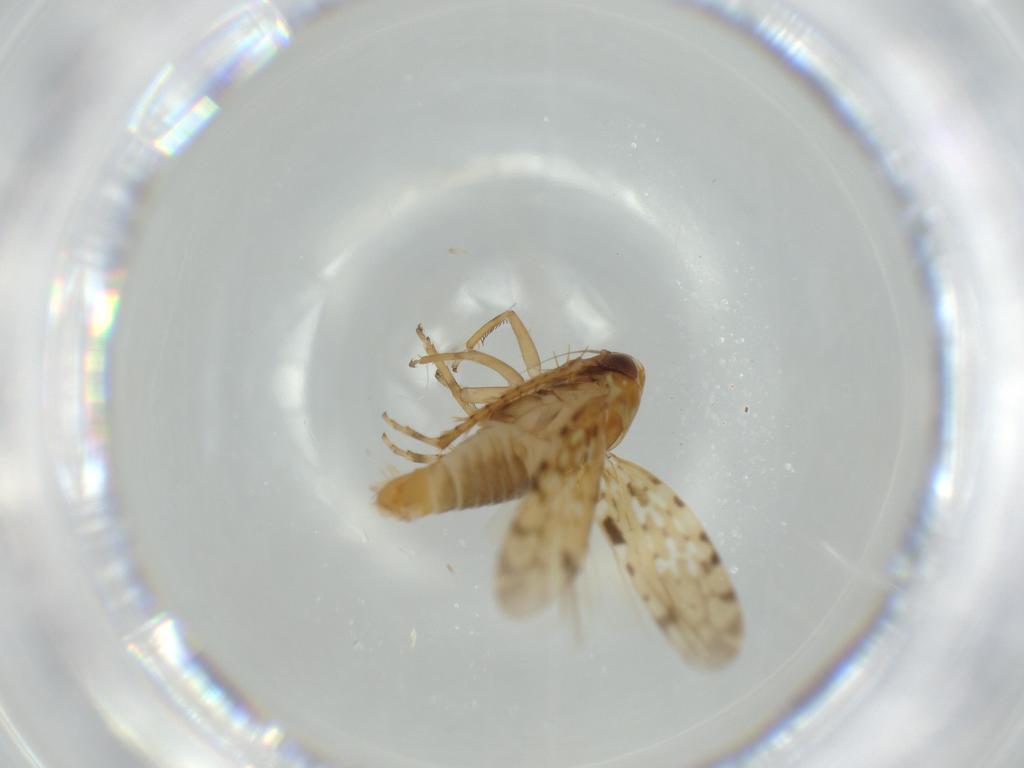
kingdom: Animalia
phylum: Arthropoda
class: Insecta
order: Hemiptera
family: Cicadellidae
